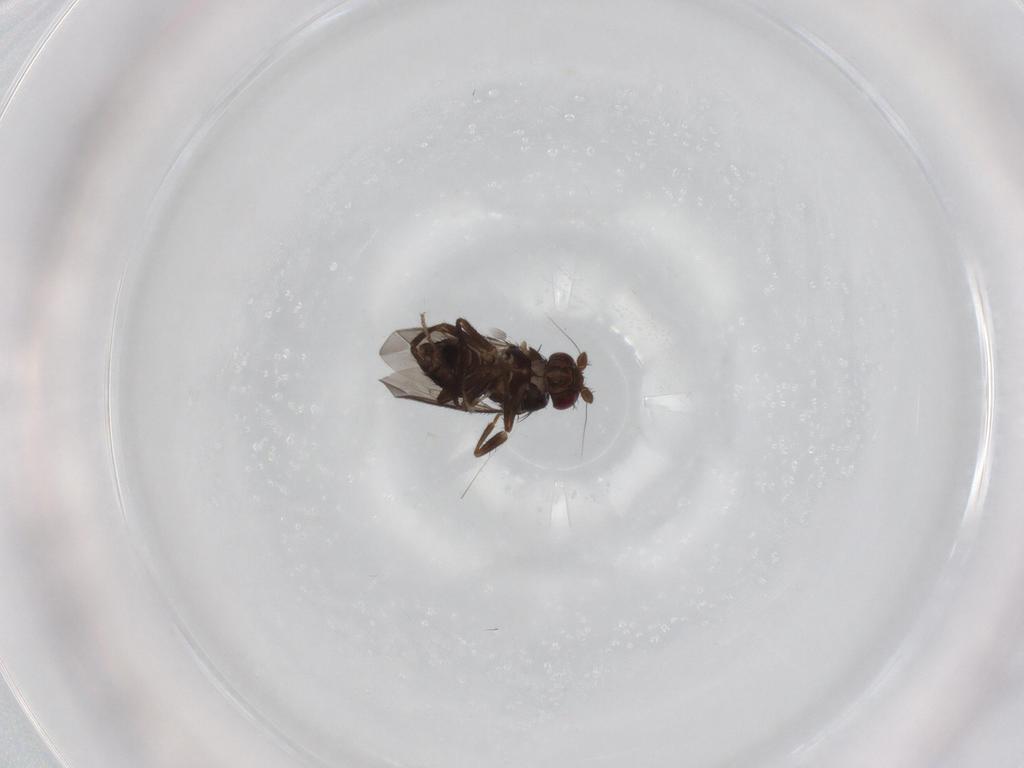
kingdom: Animalia
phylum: Arthropoda
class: Insecta
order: Diptera
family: Sphaeroceridae
